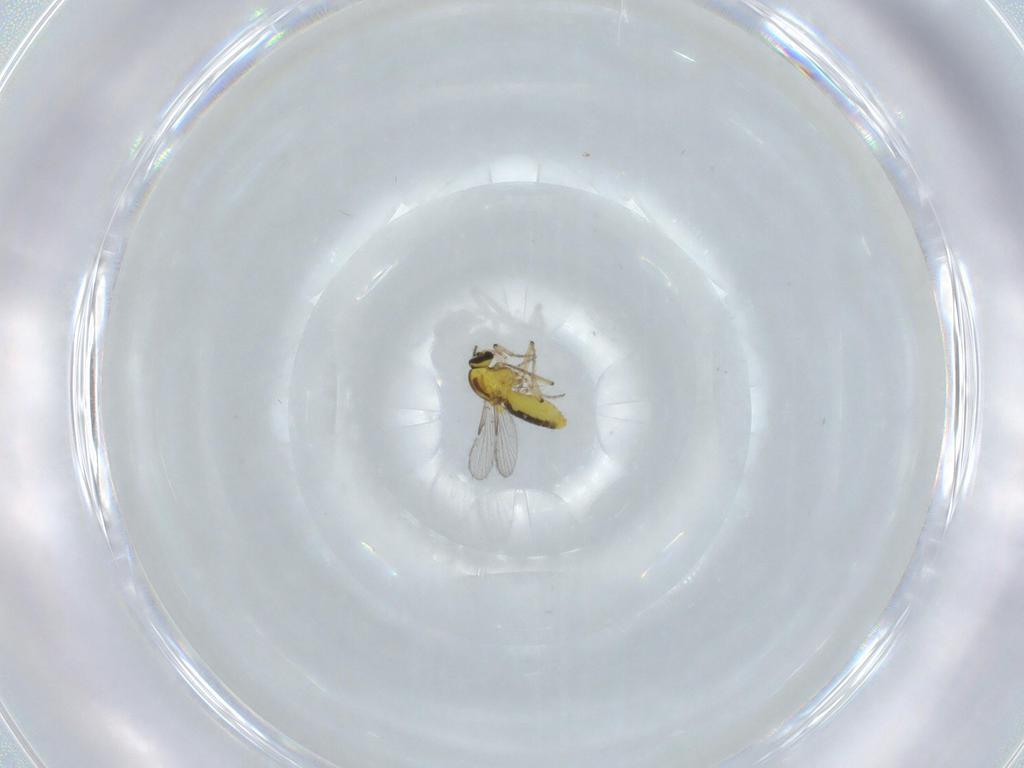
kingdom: Animalia
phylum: Arthropoda
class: Insecta
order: Diptera
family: Ceratopogonidae
